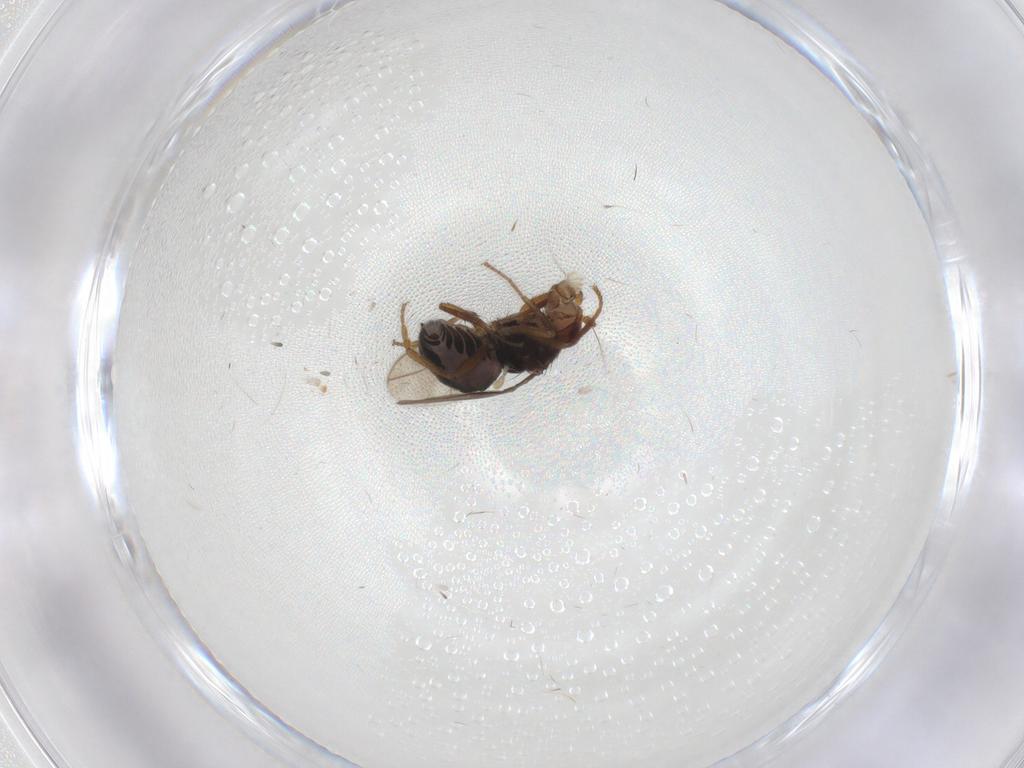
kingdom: Animalia
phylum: Arthropoda
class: Insecta
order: Diptera
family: Sphaeroceridae
